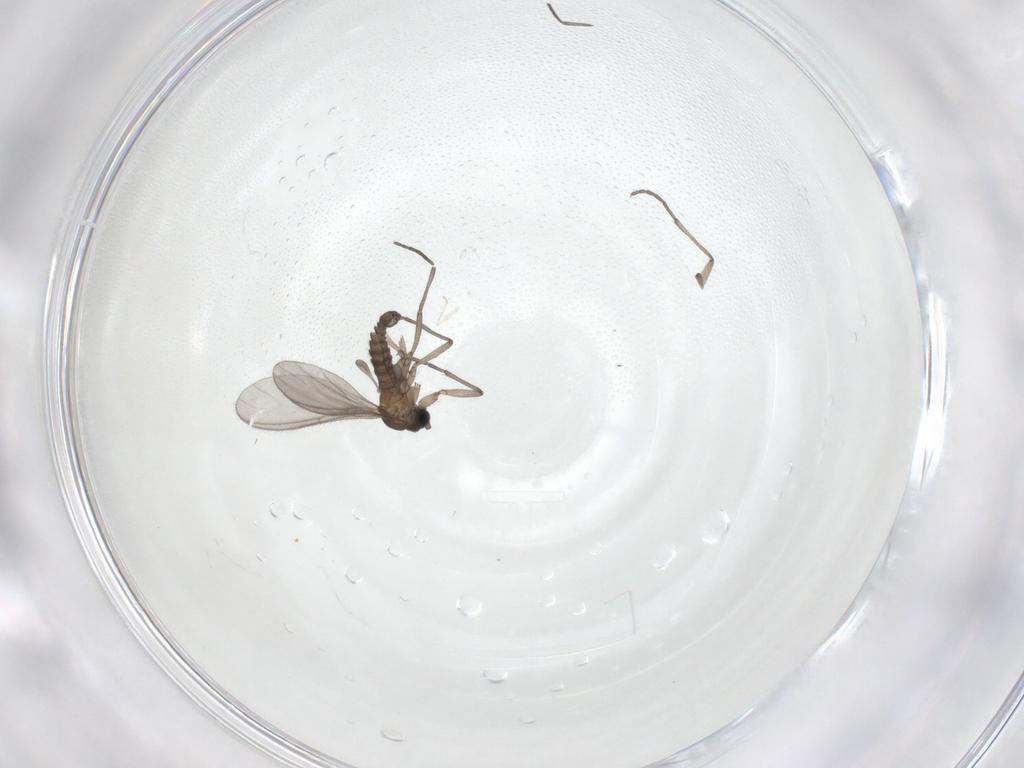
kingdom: Animalia
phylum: Arthropoda
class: Insecta
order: Diptera
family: Sciaridae
